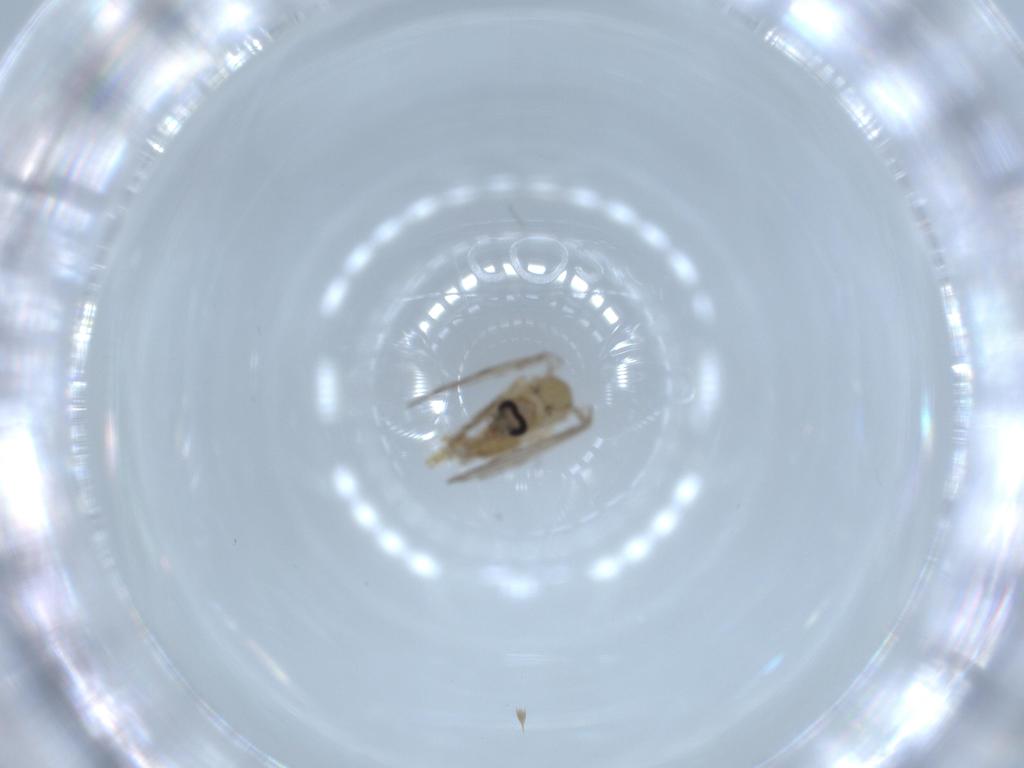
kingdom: Animalia
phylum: Arthropoda
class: Insecta
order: Diptera
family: Psychodidae
